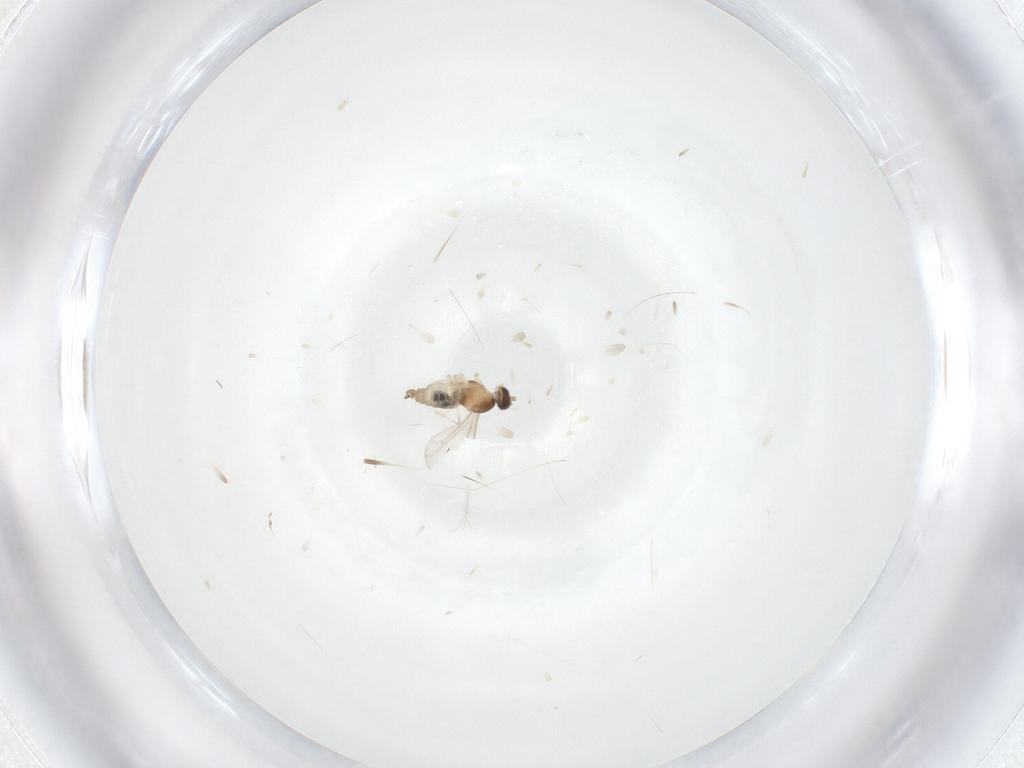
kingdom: Animalia
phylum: Arthropoda
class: Insecta
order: Diptera
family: Cecidomyiidae
